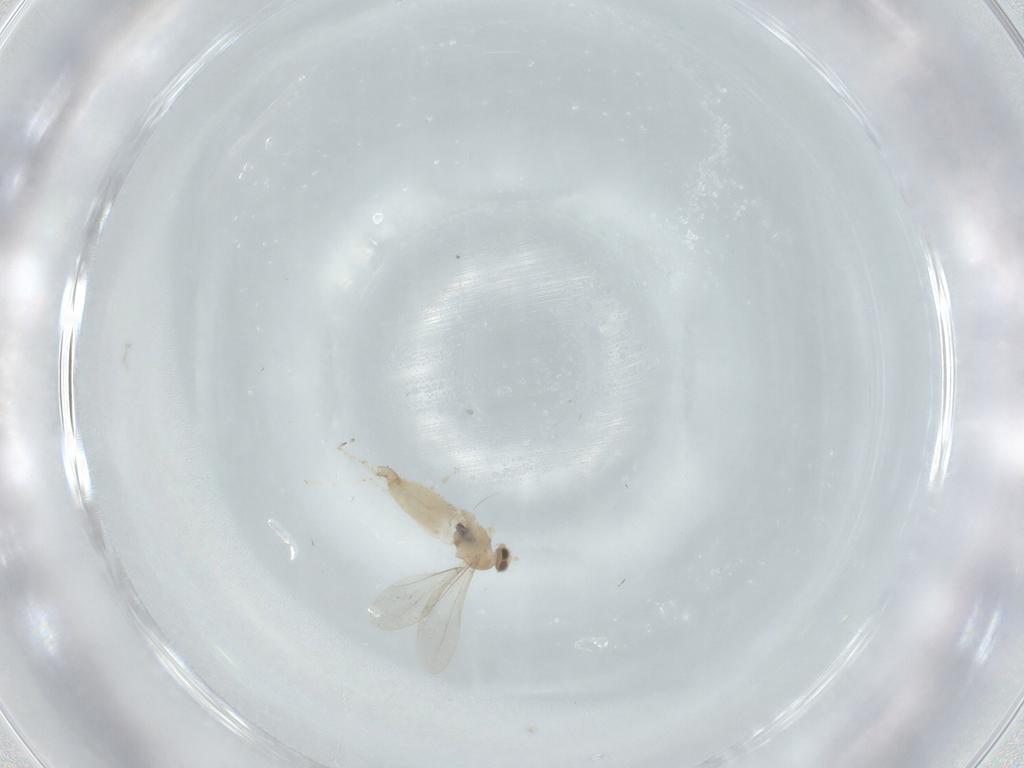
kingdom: Animalia
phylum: Arthropoda
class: Insecta
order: Diptera
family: Cecidomyiidae
